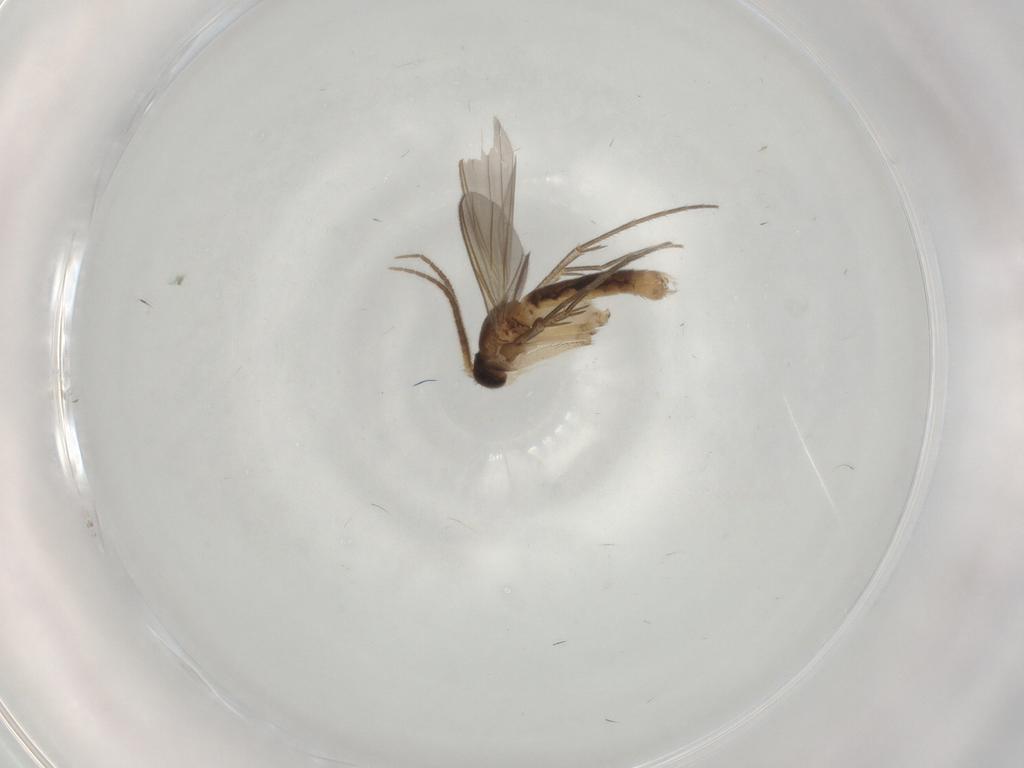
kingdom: Animalia
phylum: Arthropoda
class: Insecta
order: Diptera
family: Mycetophilidae
